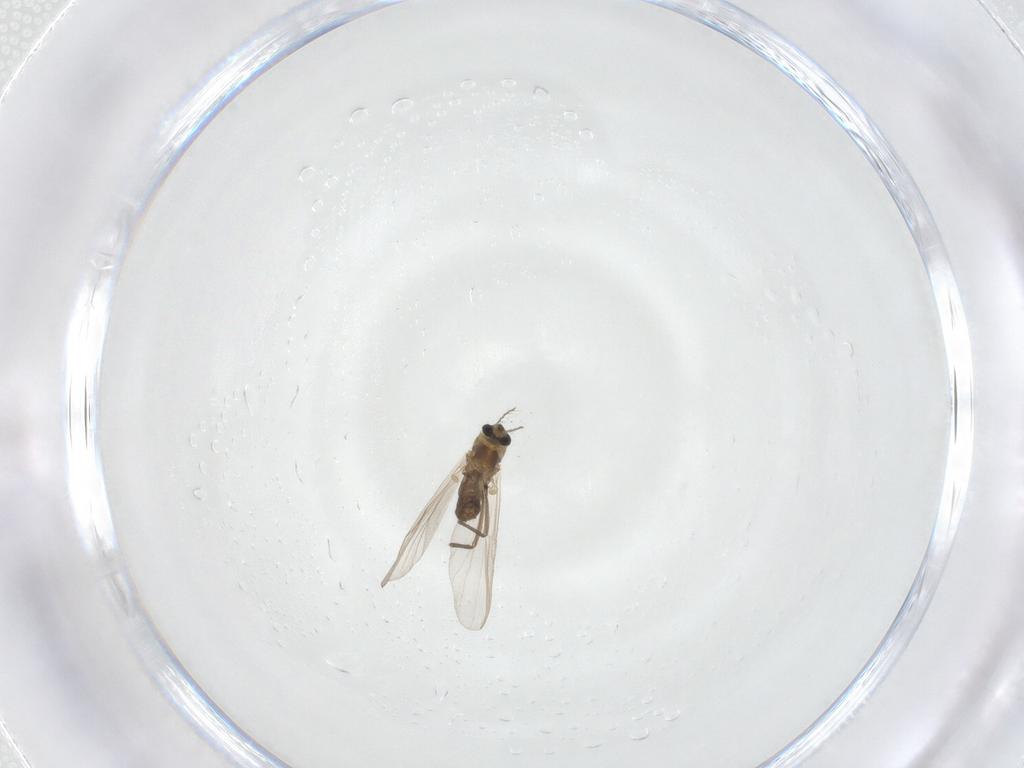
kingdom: Animalia
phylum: Arthropoda
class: Insecta
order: Diptera
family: Chironomidae
